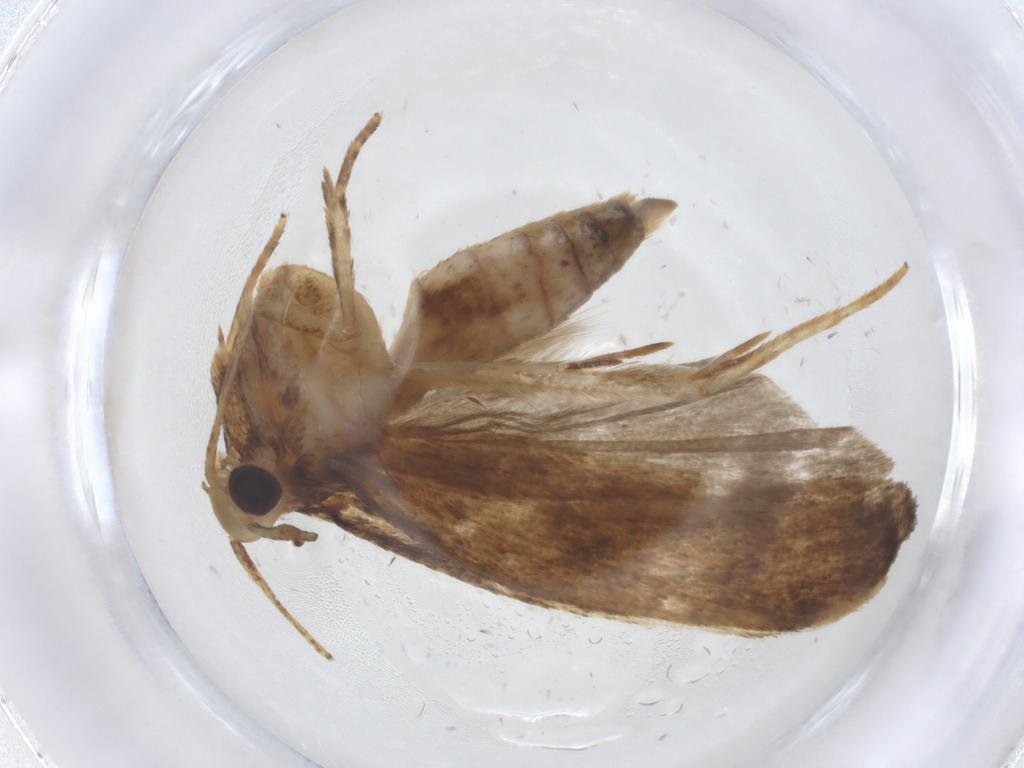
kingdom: Animalia
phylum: Arthropoda
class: Insecta
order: Lepidoptera
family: Autostichidae
